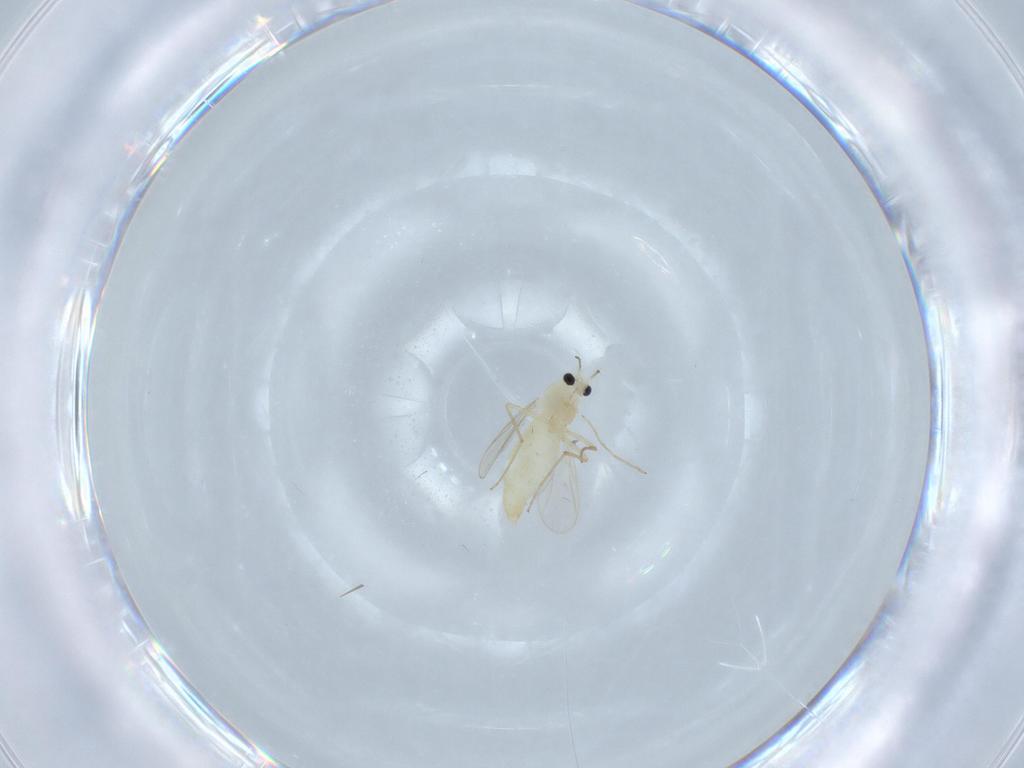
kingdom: Animalia
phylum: Arthropoda
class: Insecta
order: Diptera
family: Chironomidae
